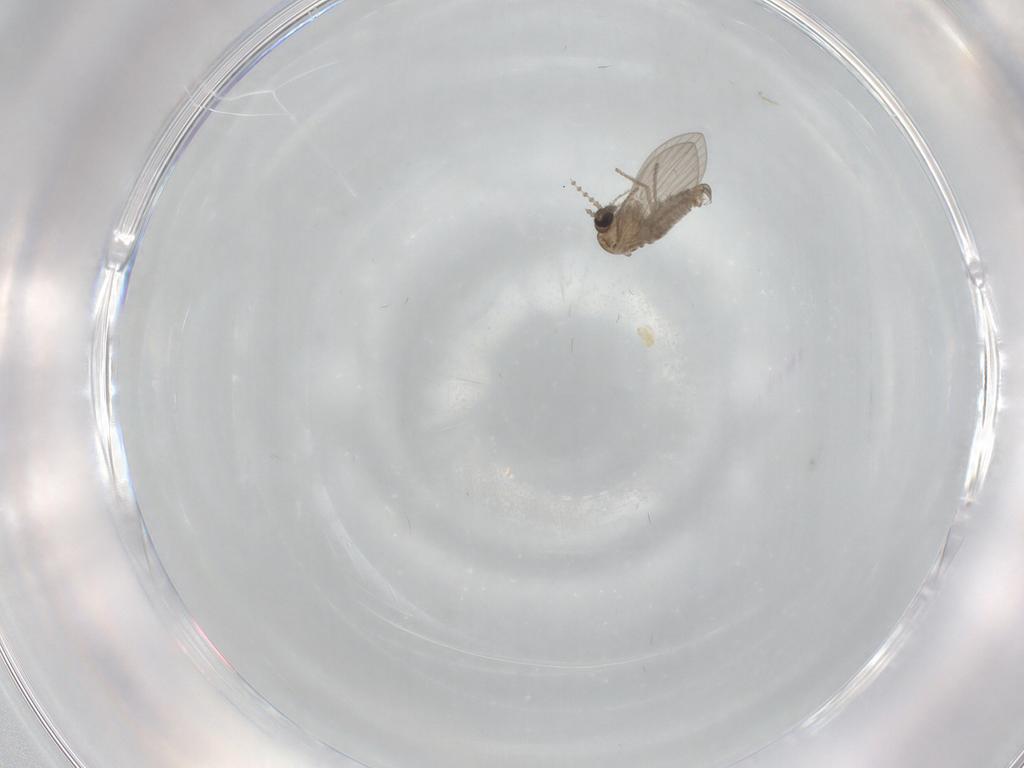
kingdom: Animalia
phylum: Arthropoda
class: Insecta
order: Diptera
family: Psychodidae
